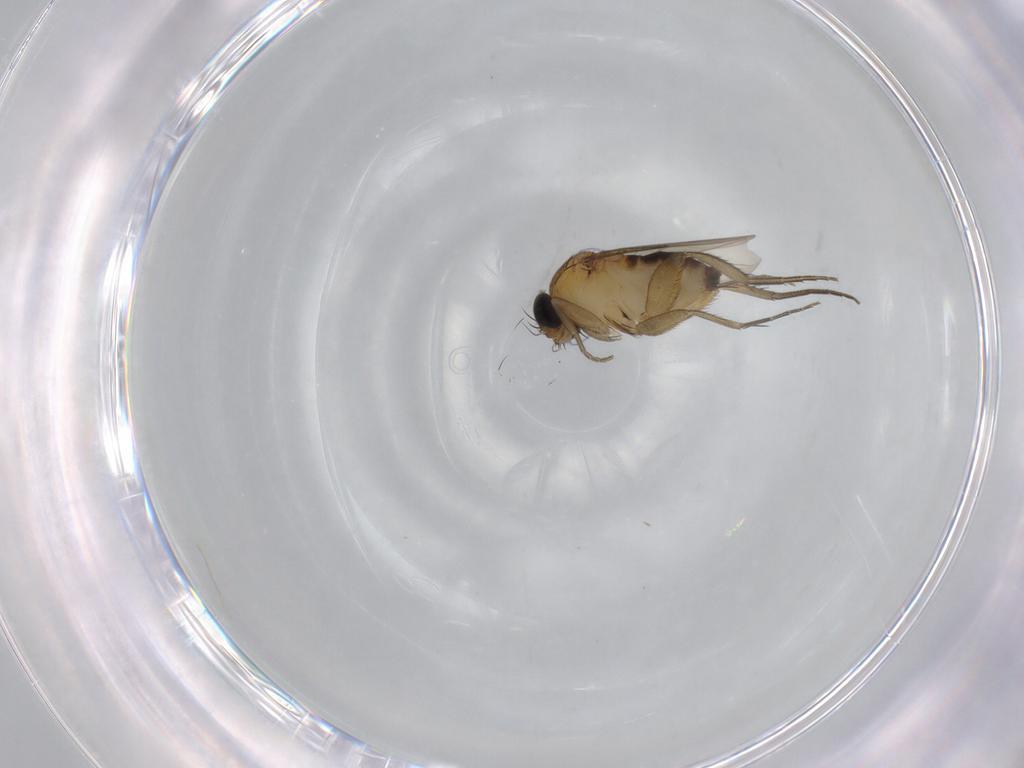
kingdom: Animalia
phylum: Arthropoda
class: Insecta
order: Diptera
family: Phoridae
